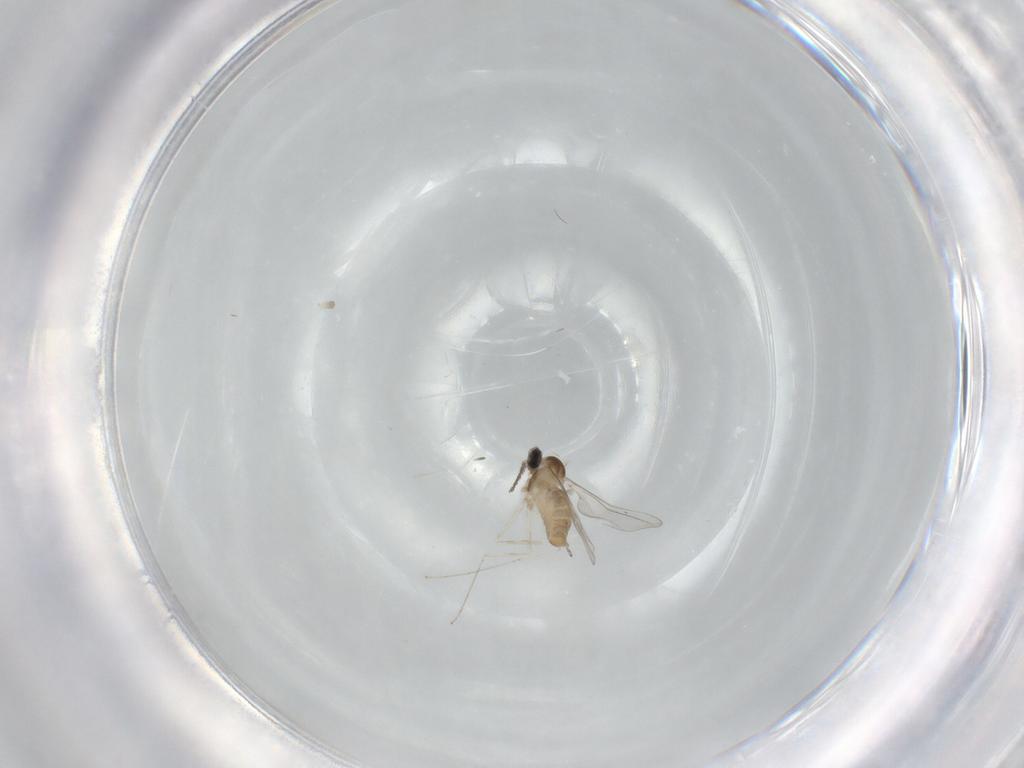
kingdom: Animalia
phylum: Arthropoda
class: Insecta
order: Diptera
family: Cecidomyiidae
